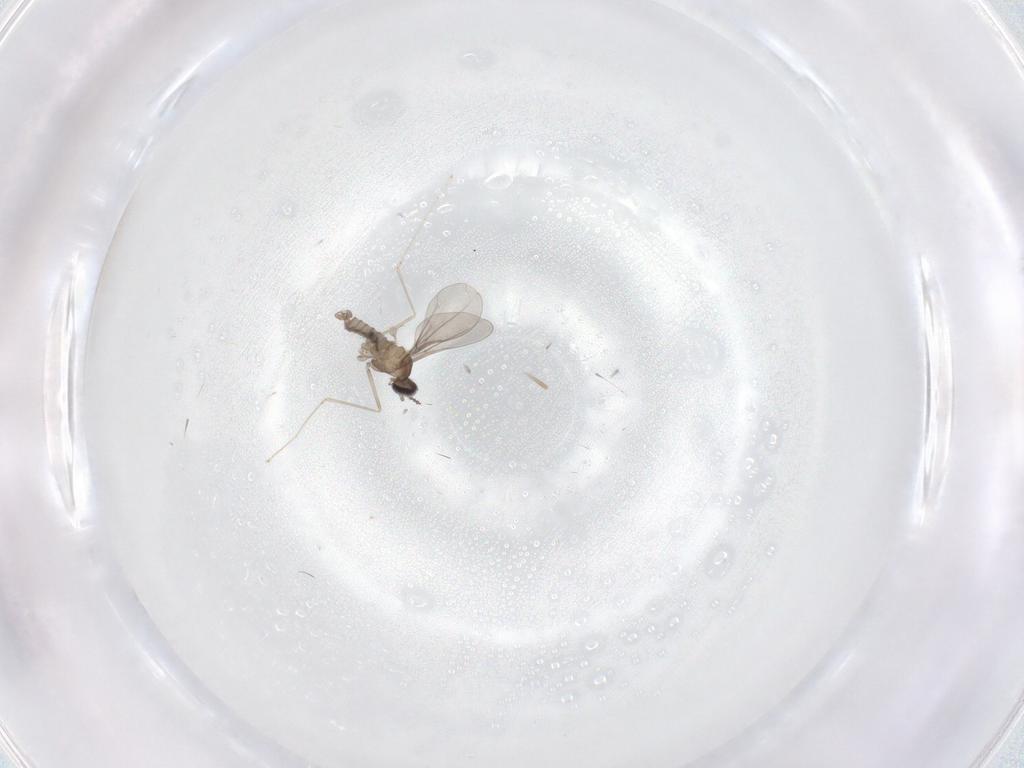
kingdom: Animalia
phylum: Arthropoda
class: Insecta
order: Diptera
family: Chironomidae
